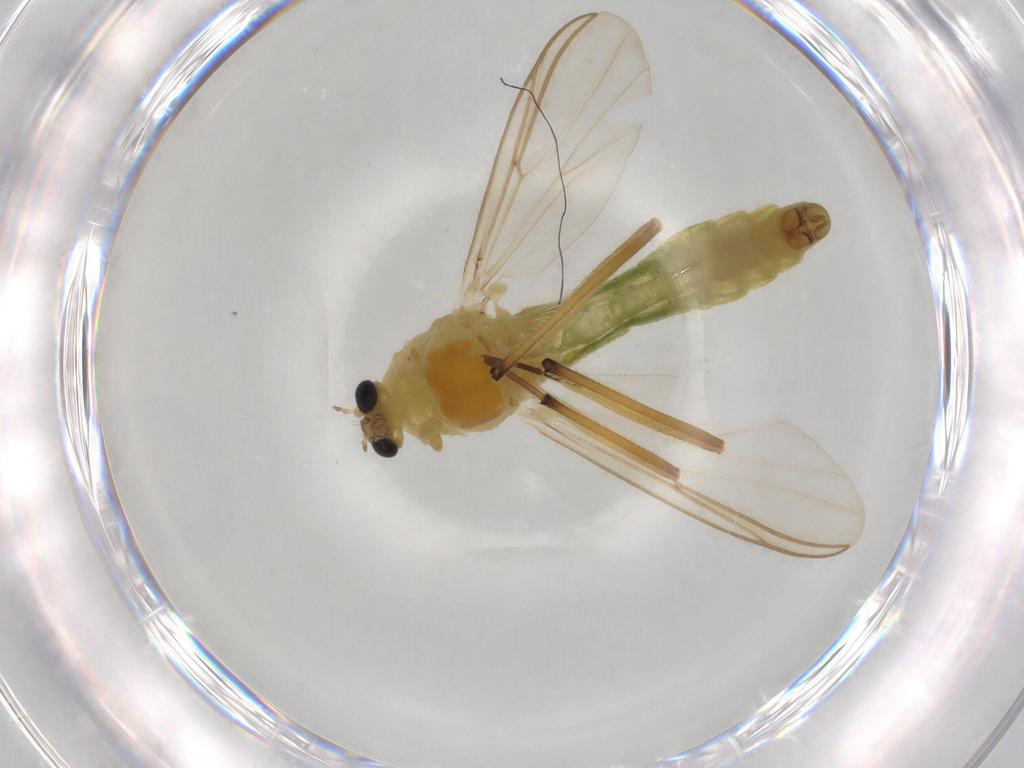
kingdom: Animalia
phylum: Arthropoda
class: Insecta
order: Diptera
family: Chironomidae
